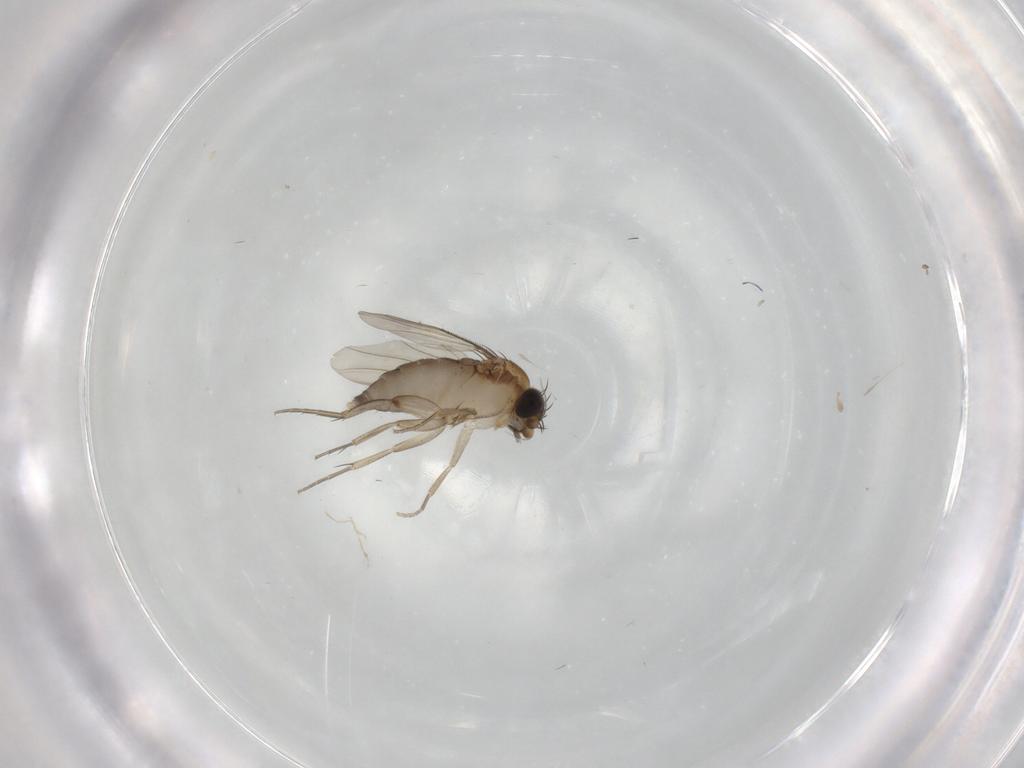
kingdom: Animalia
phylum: Arthropoda
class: Insecta
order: Diptera
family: Phoridae
